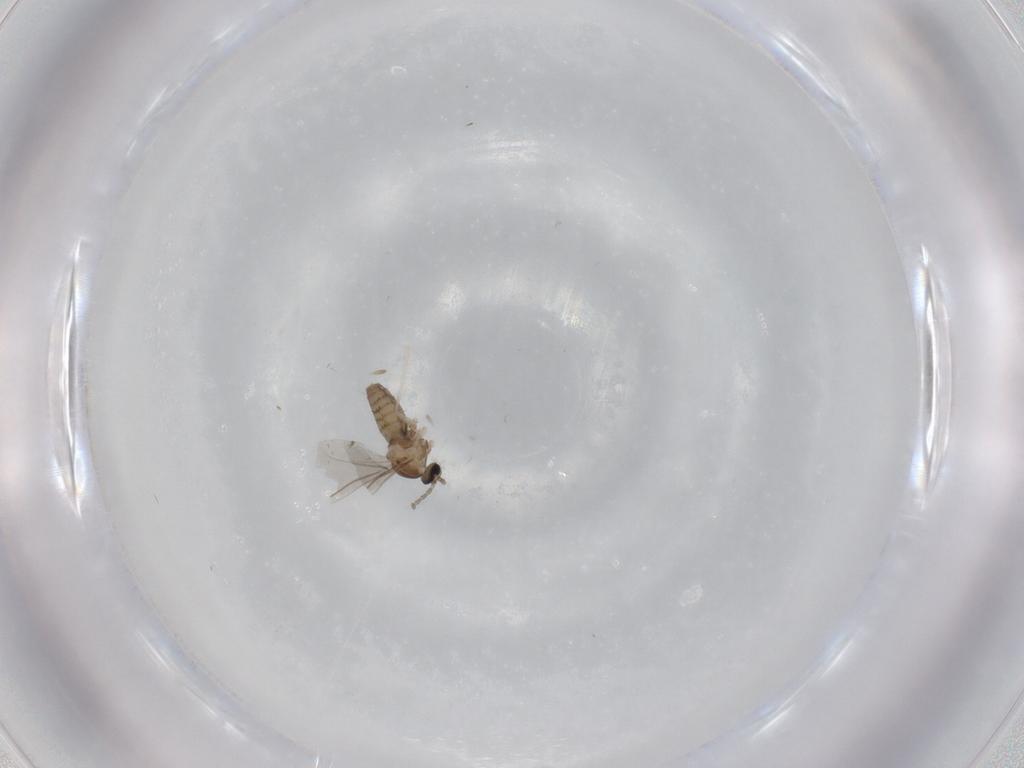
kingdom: Animalia
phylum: Arthropoda
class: Insecta
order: Diptera
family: Cecidomyiidae
